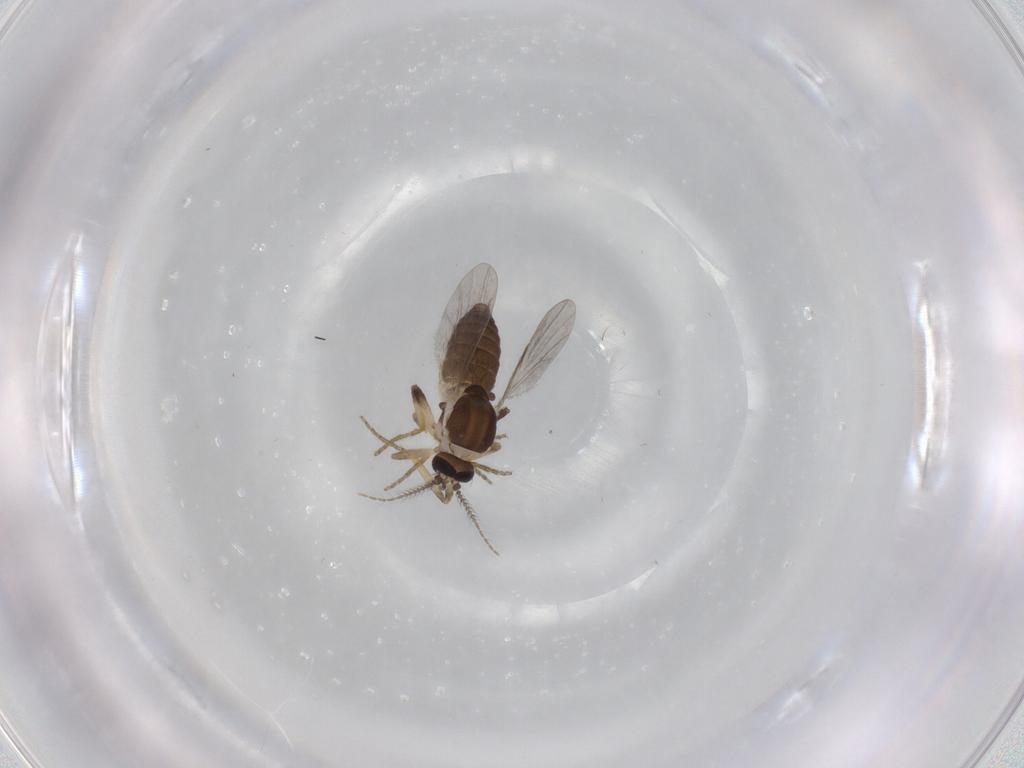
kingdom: Animalia
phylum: Arthropoda
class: Insecta
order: Diptera
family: Ceratopogonidae
